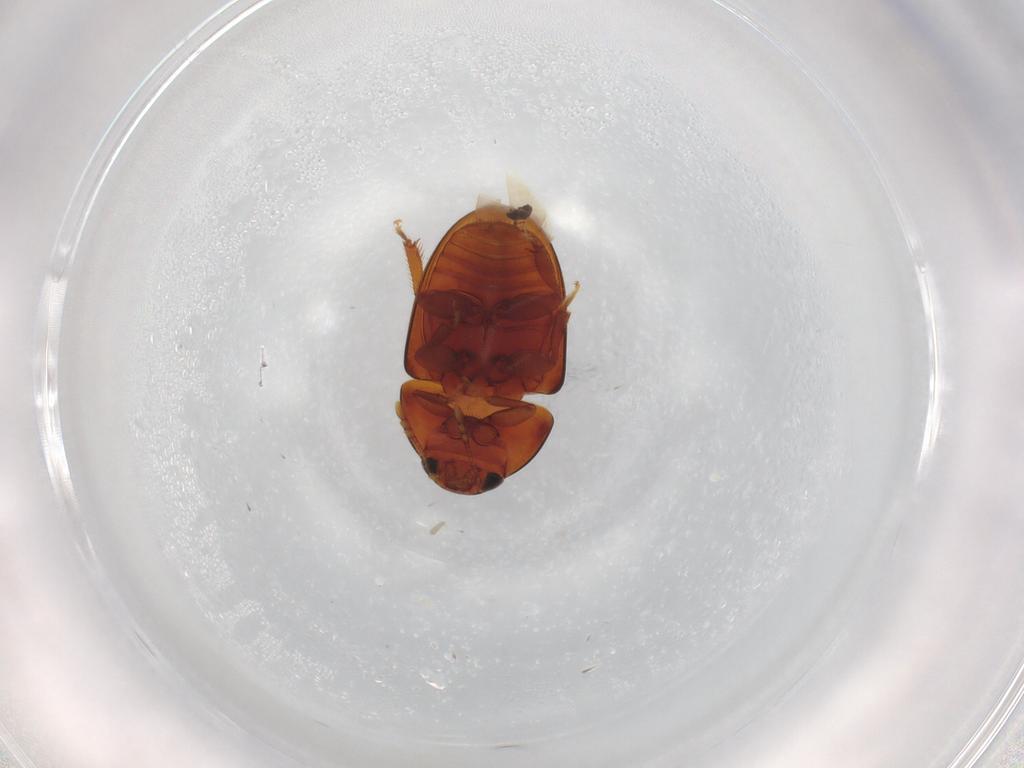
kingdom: Animalia
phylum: Arthropoda
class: Insecta
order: Coleoptera
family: Phalacridae
